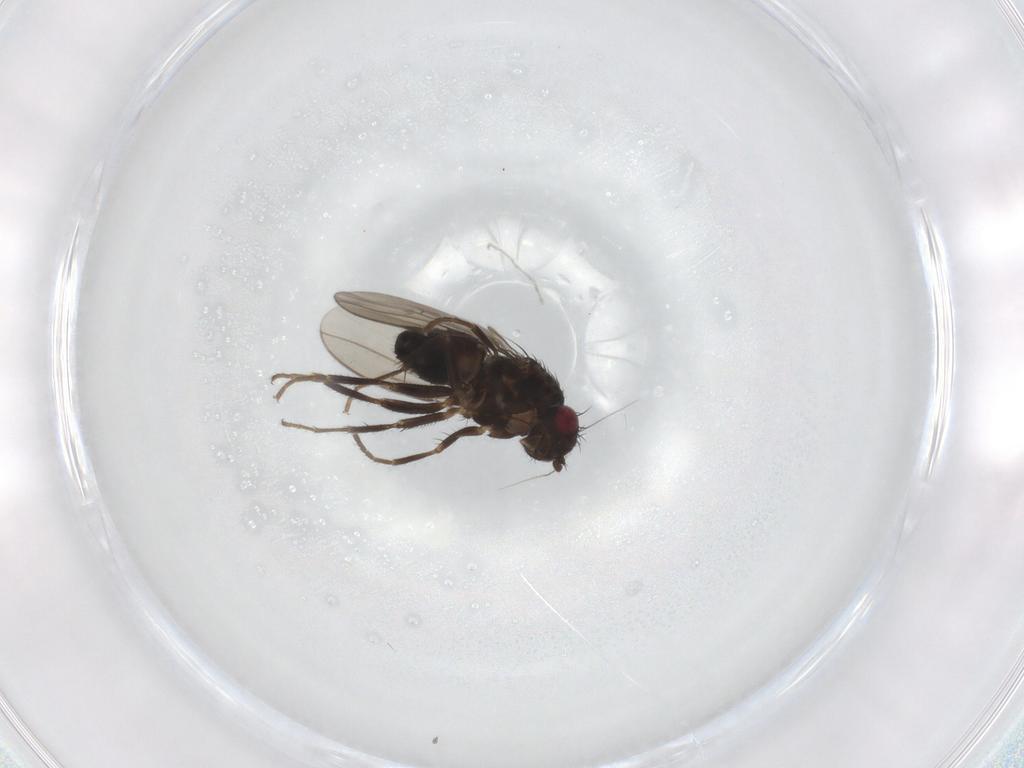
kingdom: Animalia
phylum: Arthropoda
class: Insecta
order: Diptera
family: Sphaeroceridae
